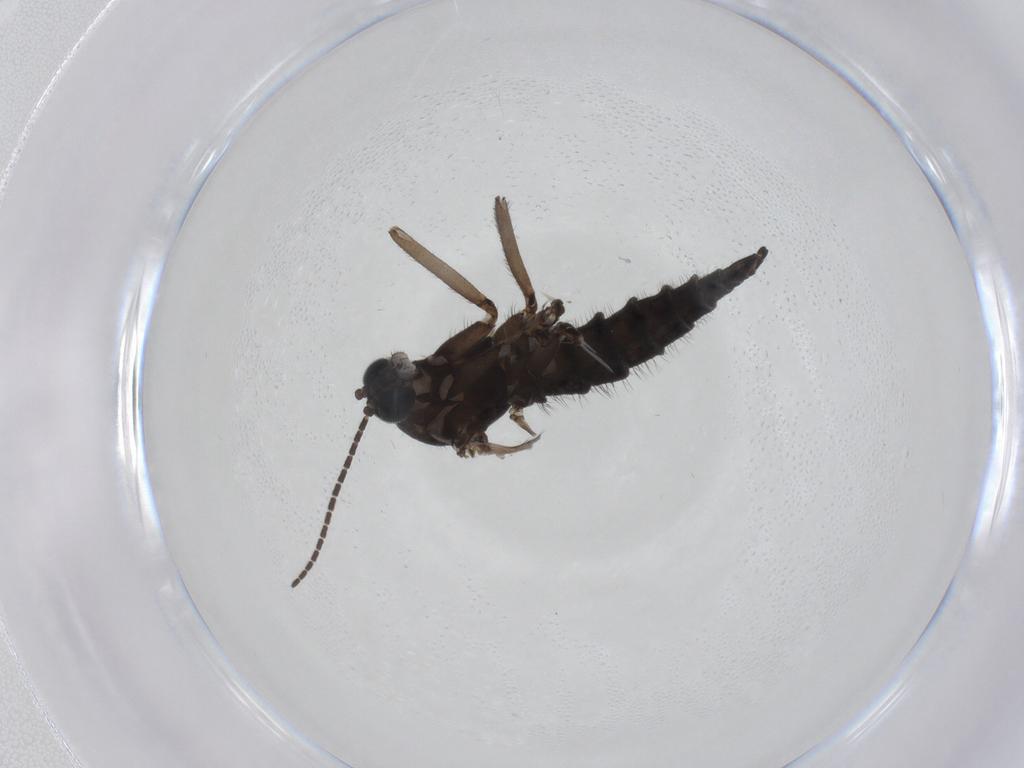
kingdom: Animalia
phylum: Arthropoda
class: Insecta
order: Diptera
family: Sciaridae
